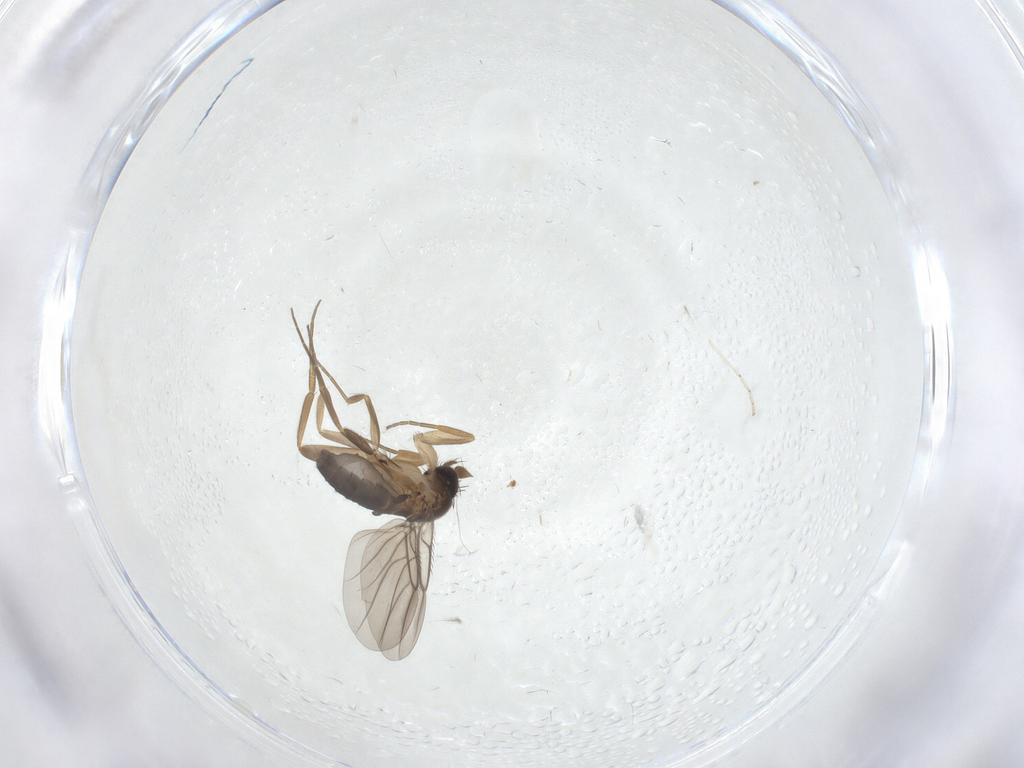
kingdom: Animalia
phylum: Arthropoda
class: Insecta
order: Diptera
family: Phoridae
